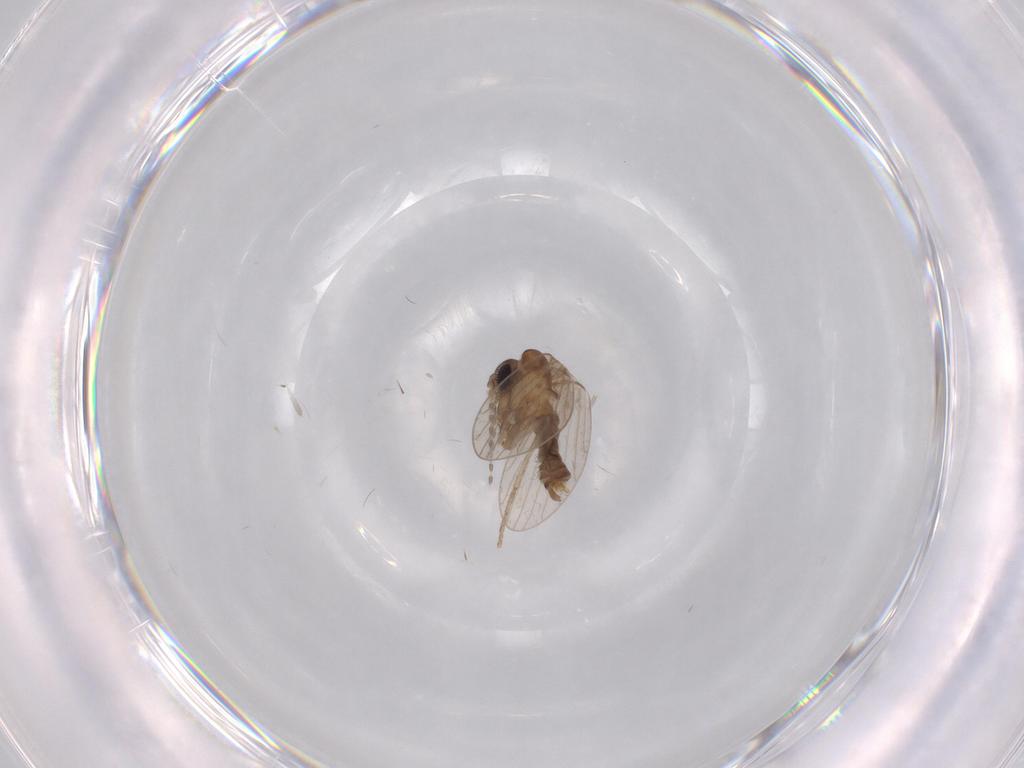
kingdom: Animalia
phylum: Arthropoda
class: Insecta
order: Diptera
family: Psychodidae
